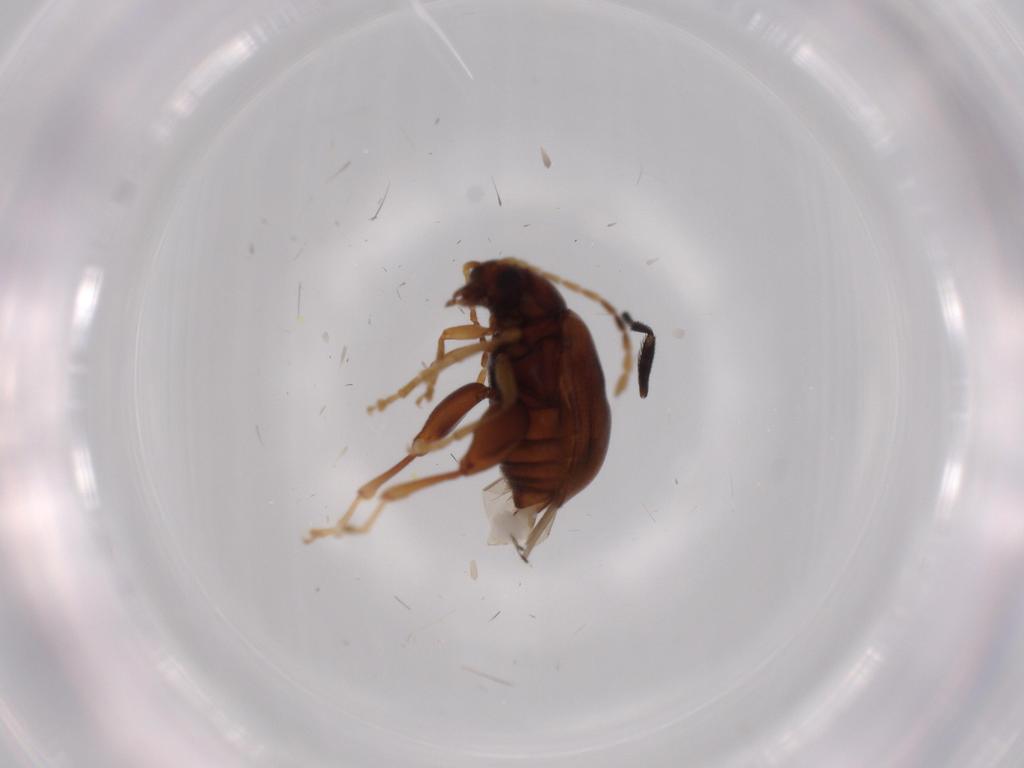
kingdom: Animalia
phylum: Arthropoda
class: Insecta
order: Coleoptera
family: Chrysomelidae
